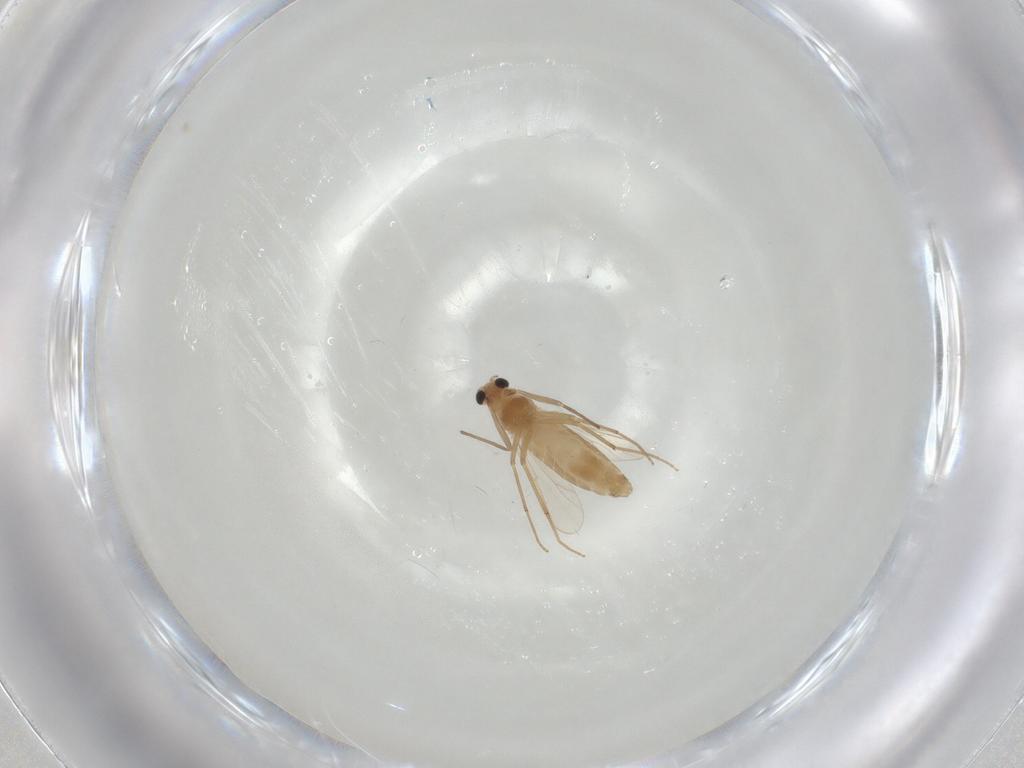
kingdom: Animalia
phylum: Arthropoda
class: Insecta
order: Diptera
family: Chironomidae
